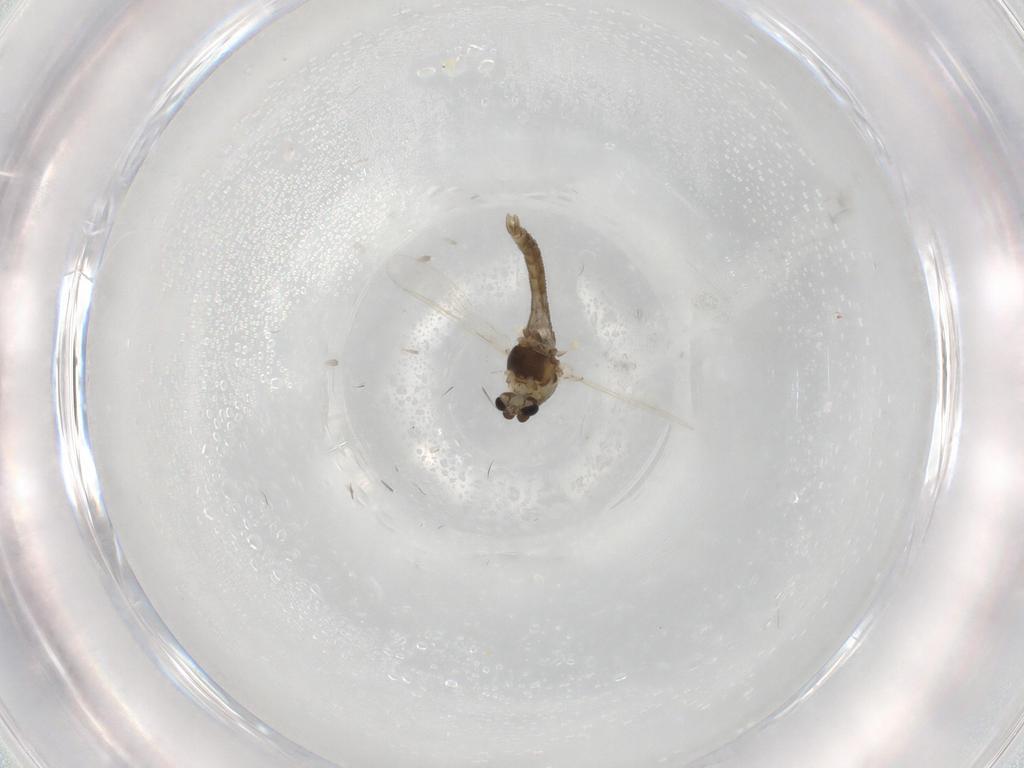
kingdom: Animalia
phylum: Arthropoda
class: Insecta
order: Diptera
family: Chironomidae
